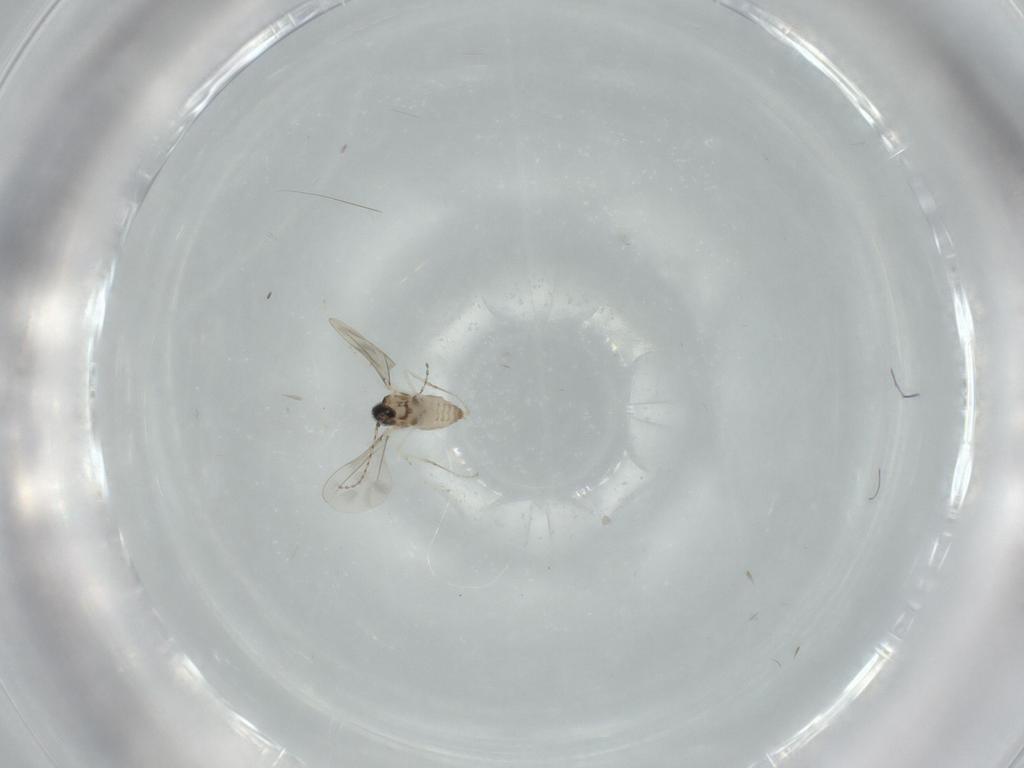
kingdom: Animalia
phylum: Arthropoda
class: Insecta
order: Diptera
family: Cecidomyiidae
